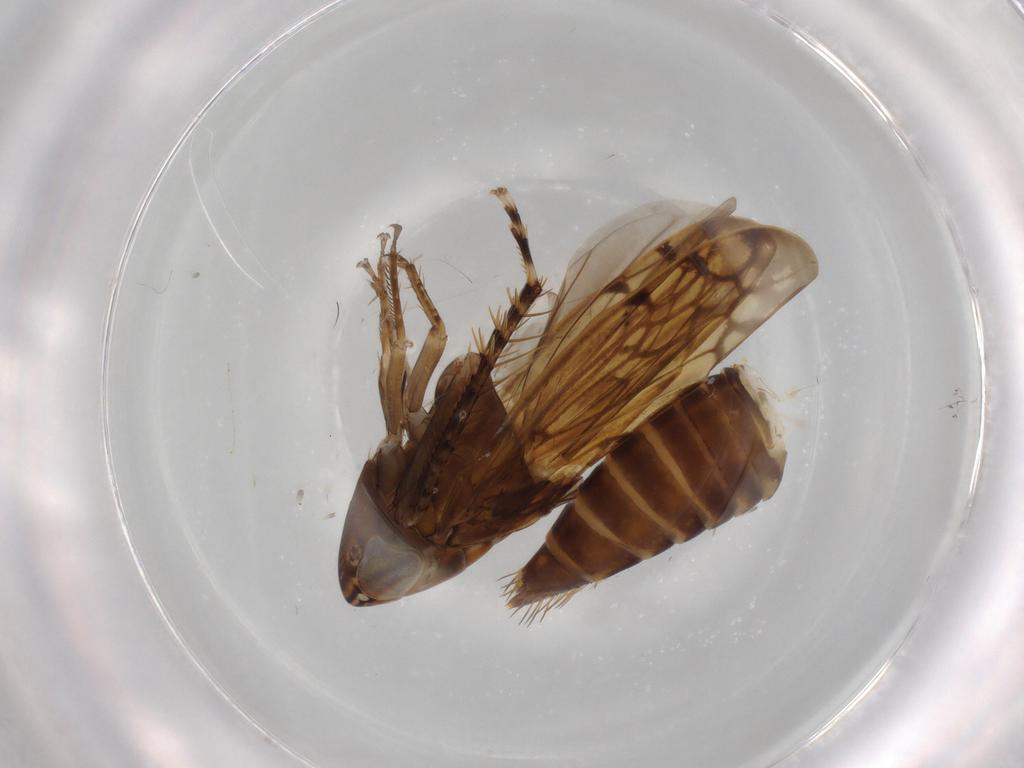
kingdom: Animalia
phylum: Arthropoda
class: Insecta
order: Hemiptera
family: Cicadellidae
